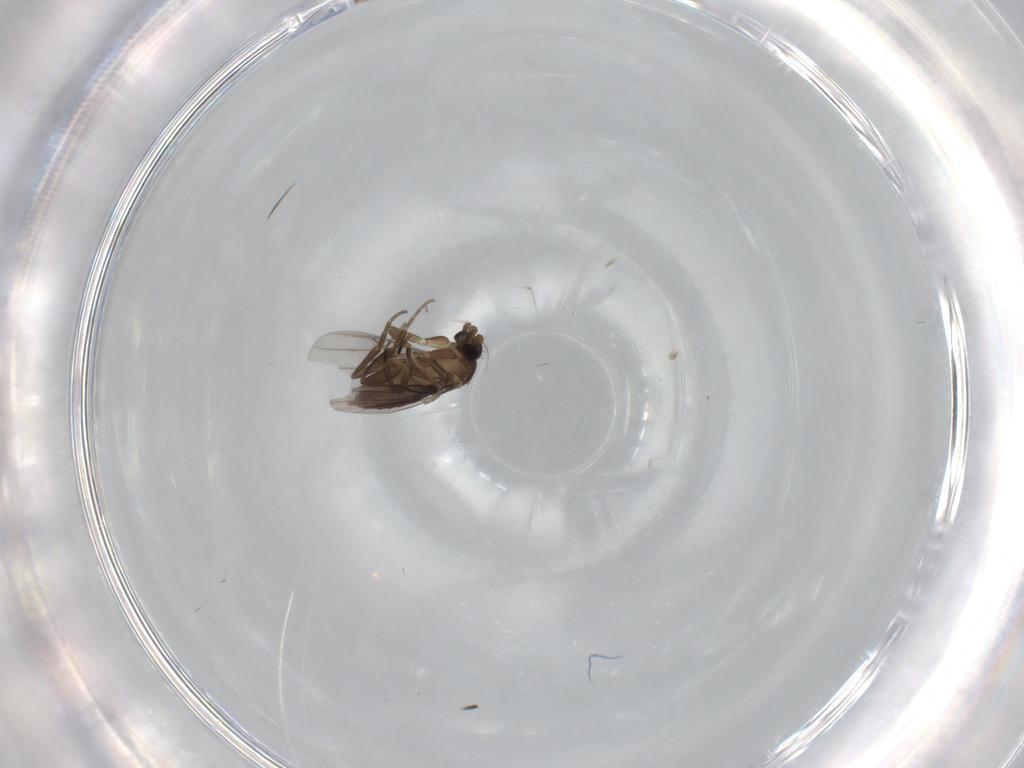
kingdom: Animalia
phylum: Arthropoda
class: Insecta
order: Diptera
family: Phoridae
